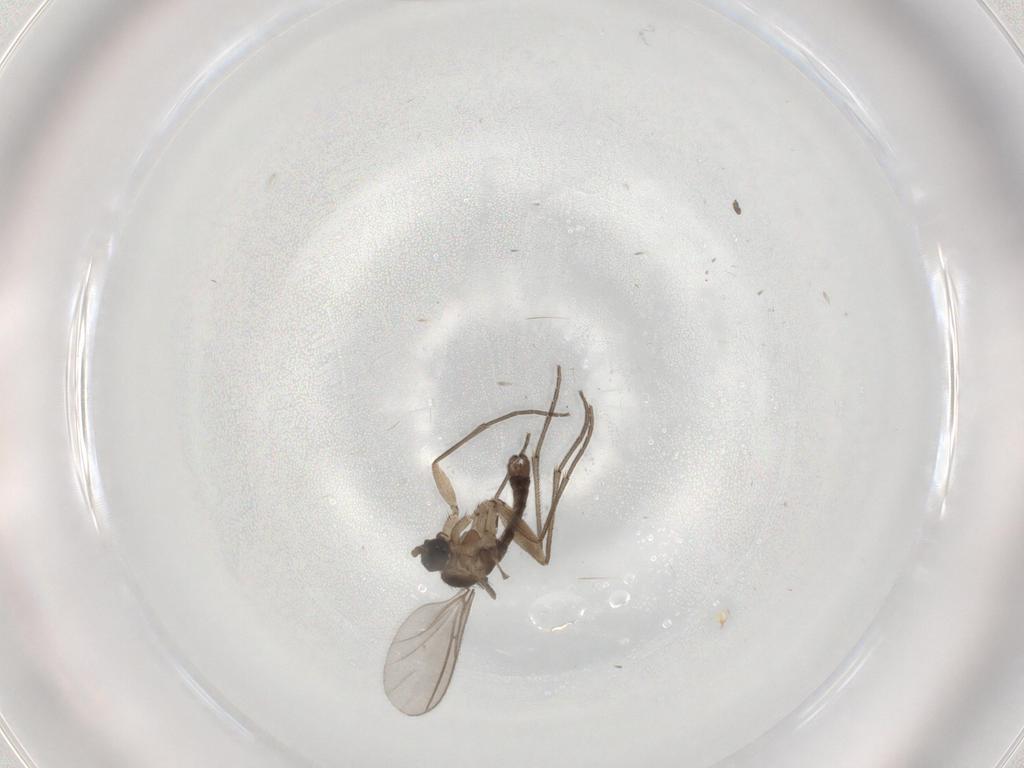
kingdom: Animalia
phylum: Arthropoda
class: Insecta
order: Diptera
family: Sciaridae
